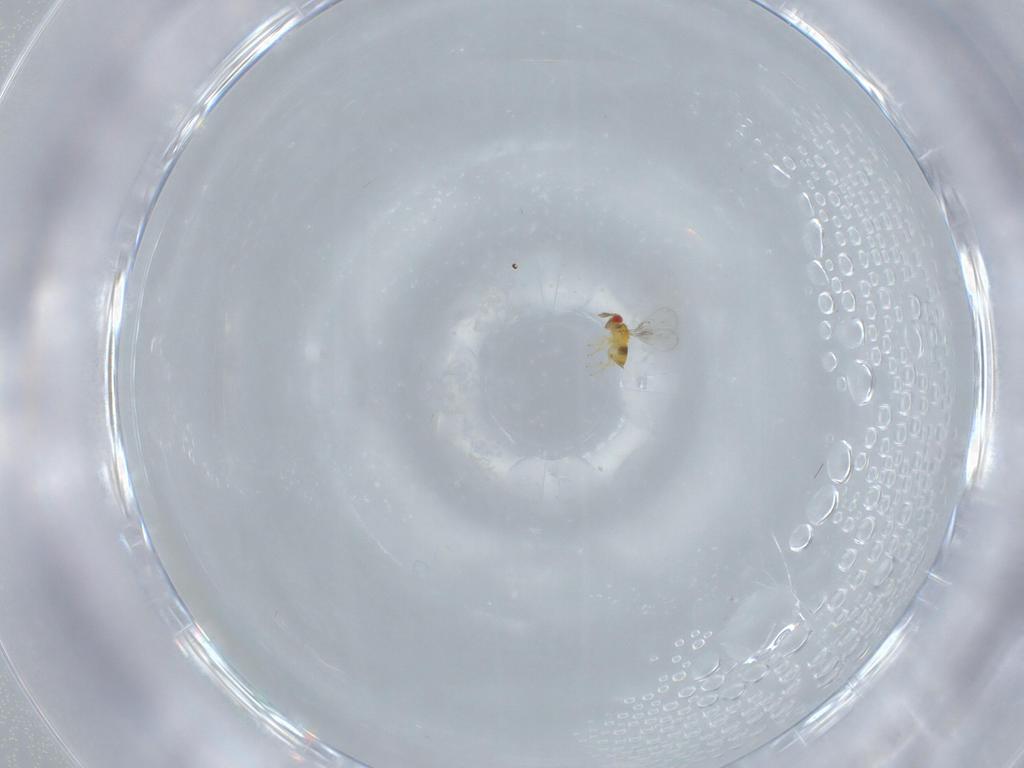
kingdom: Animalia
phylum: Arthropoda
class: Insecta
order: Hymenoptera
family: Trichogrammatidae
